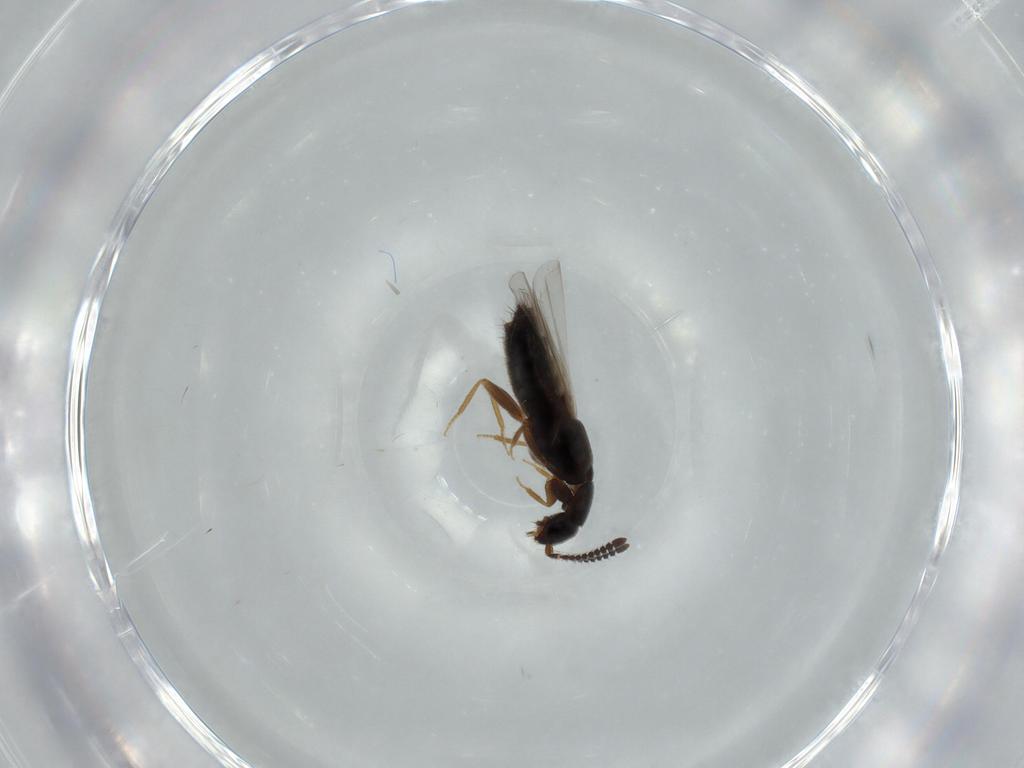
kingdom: Animalia
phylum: Arthropoda
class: Insecta
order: Coleoptera
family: Staphylinidae
